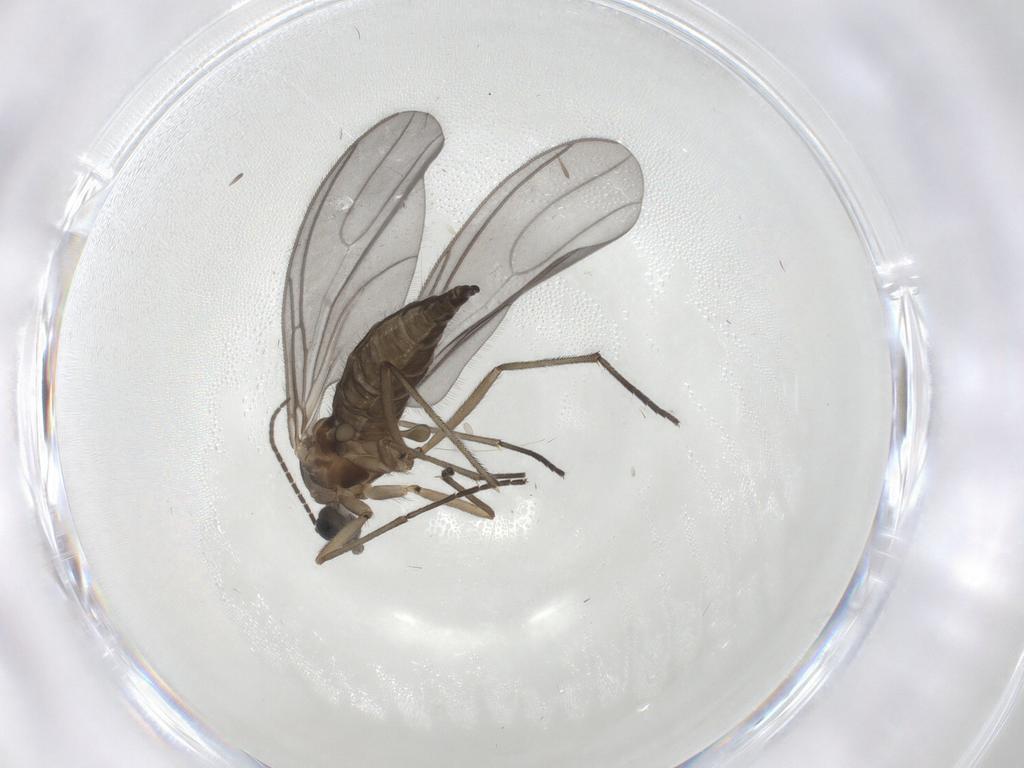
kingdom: Animalia
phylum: Arthropoda
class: Insecta
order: Diptera
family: Sciaridae
